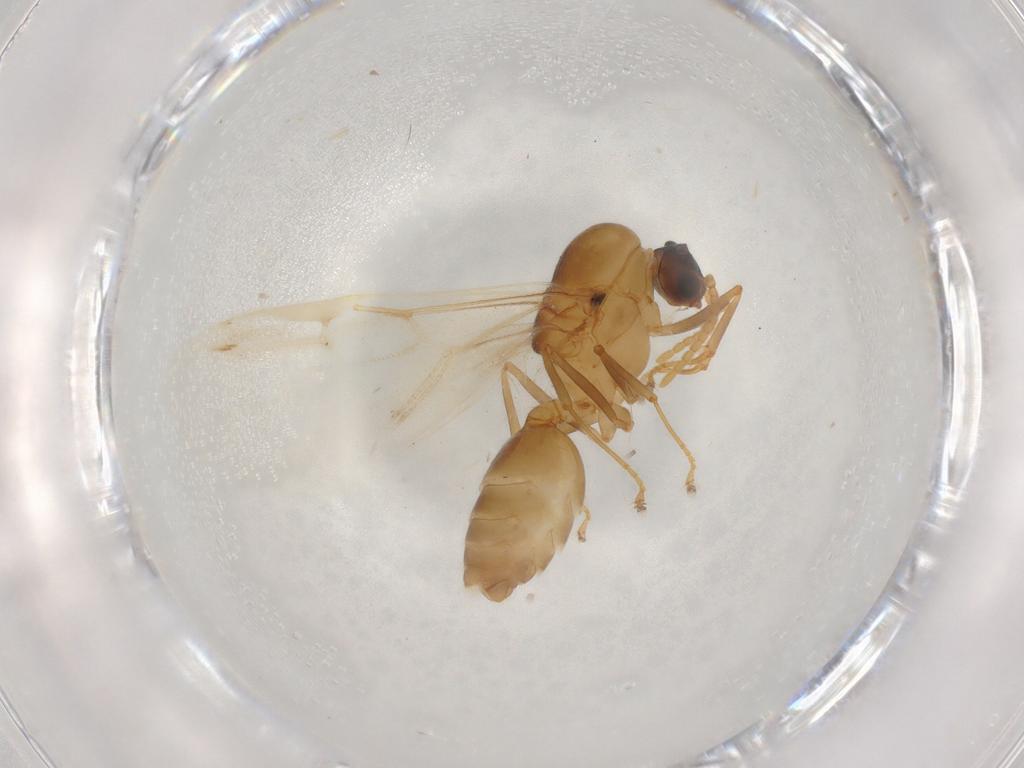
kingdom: Animalia
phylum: Arthropoda
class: Insecta
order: Hymenoptera
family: Formicidae
